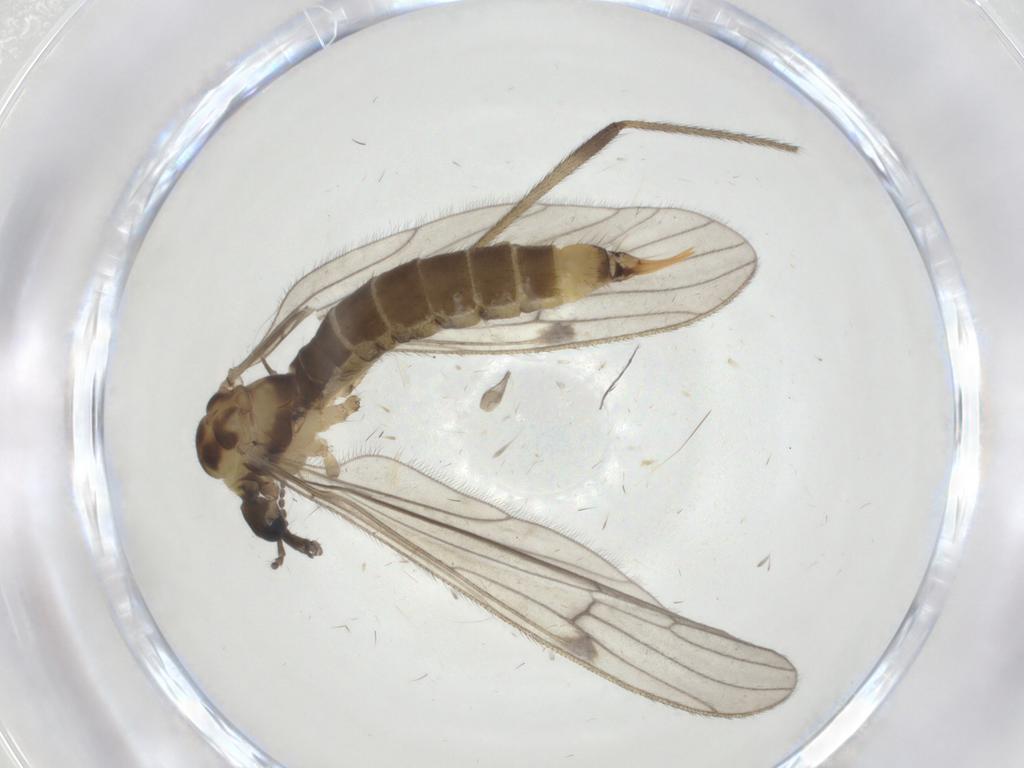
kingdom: Animalia
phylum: Arthropoda
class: Insecta
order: Diptera
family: Limoniidae
